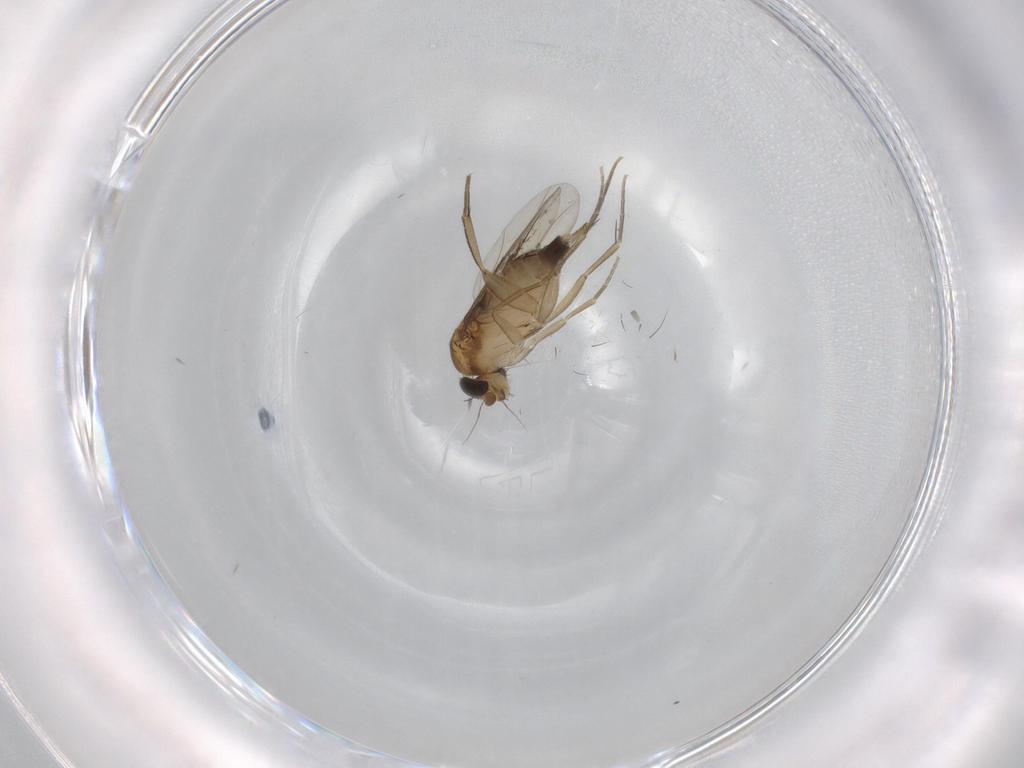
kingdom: Animalia
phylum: Arthropoda
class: Insecta
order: Diptera
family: Phoridae
